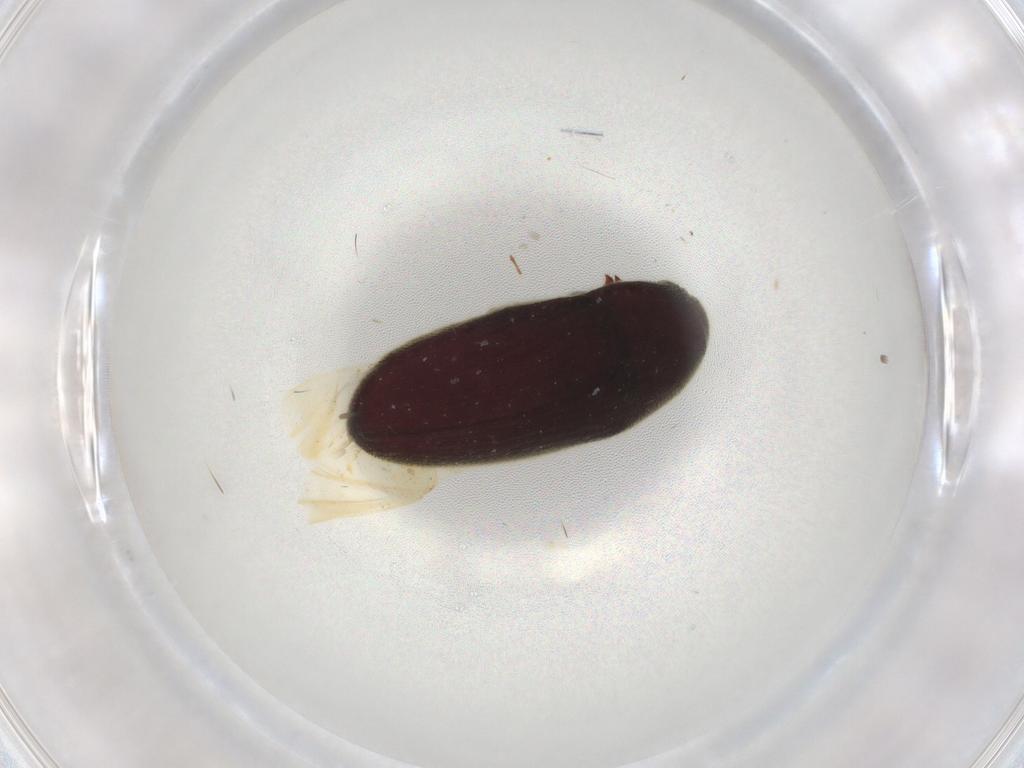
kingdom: Animalia
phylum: Arthropoda
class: Insecta
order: Coleoptera
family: Throscidae
